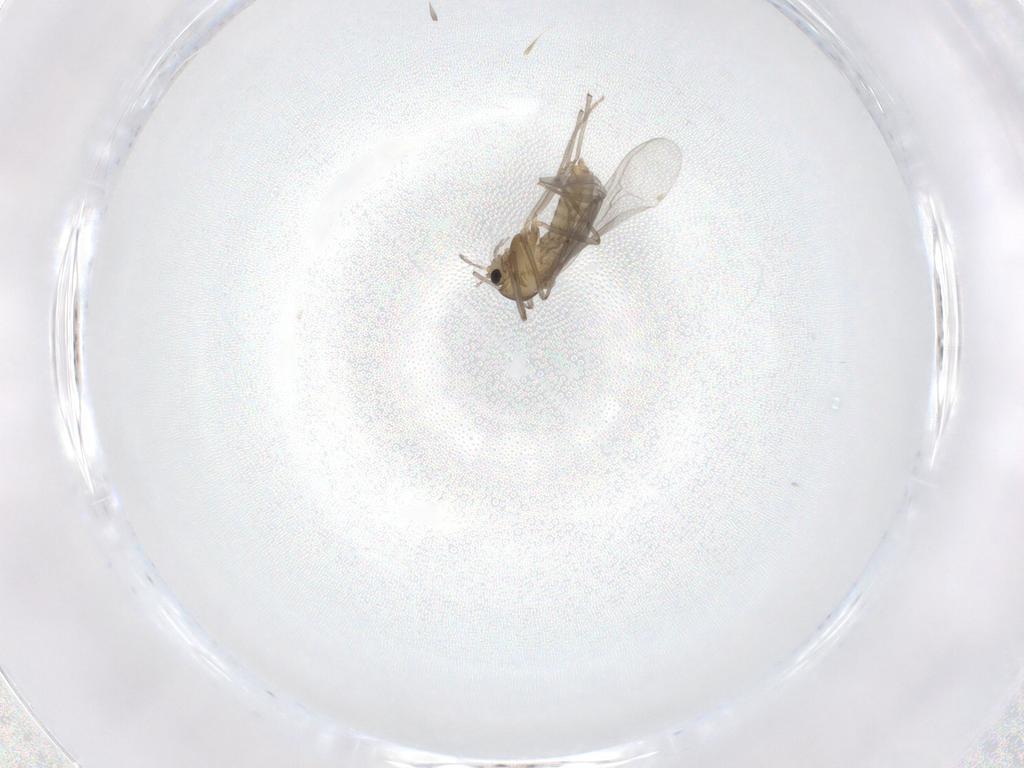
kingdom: Animalia
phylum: Arthropoda
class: Insecta
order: Diptera
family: Chironomidae
